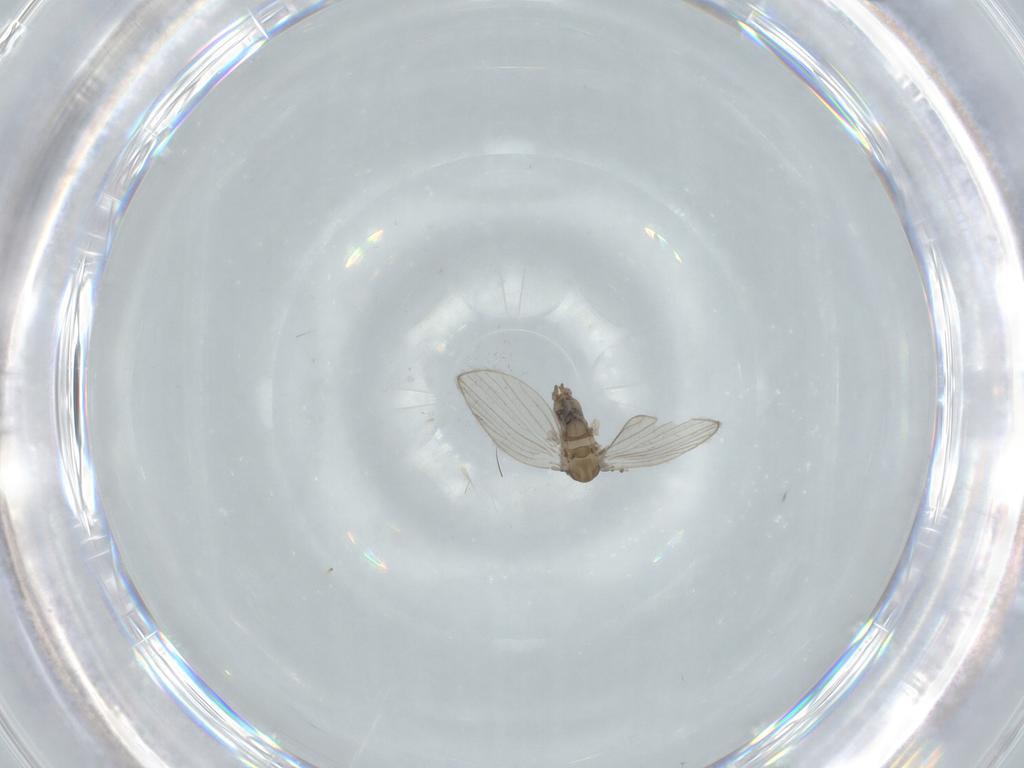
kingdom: Animalia
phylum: Arthropoda
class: Insecta
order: Diptera
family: Psychodidae
